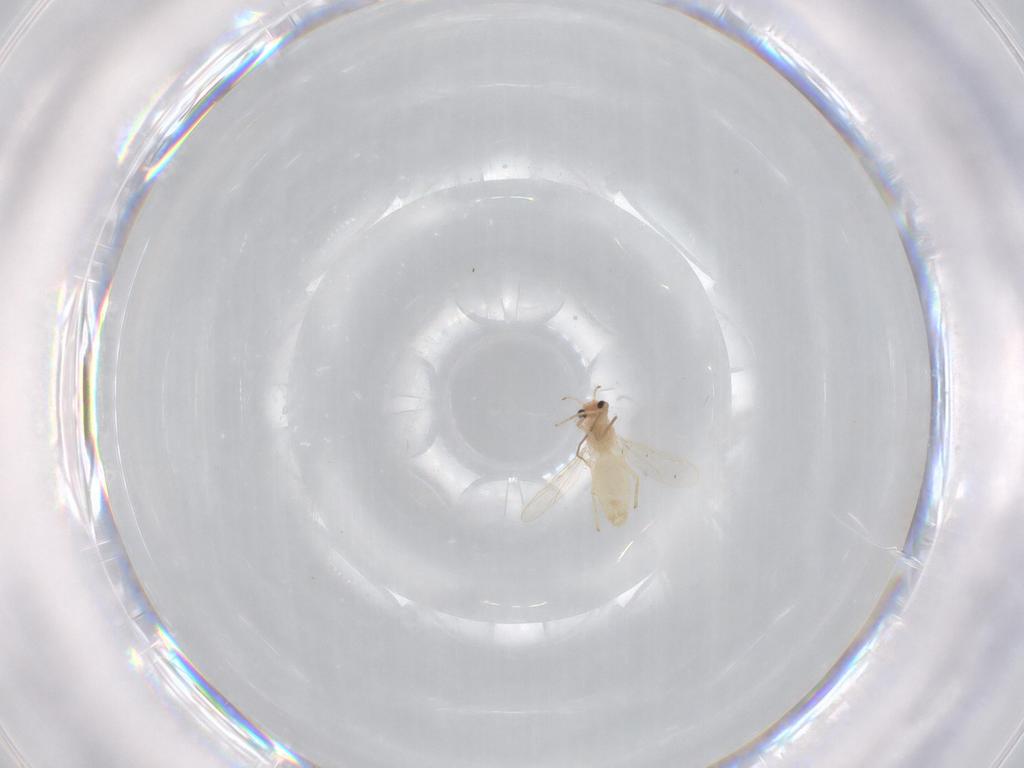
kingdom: Animalia
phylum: Arthropoda
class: Insecta
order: Diptera
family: Chironomidae
